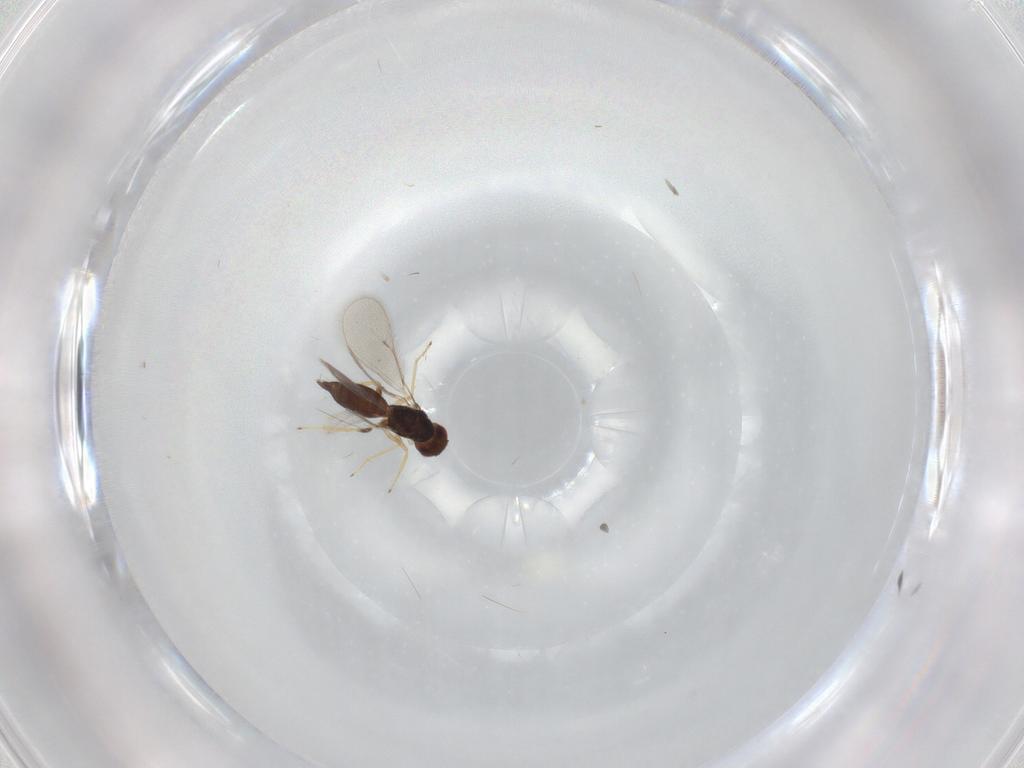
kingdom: Animalia
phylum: Arthropoda
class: Insecta
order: Hymenoptera
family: Eulophidae
